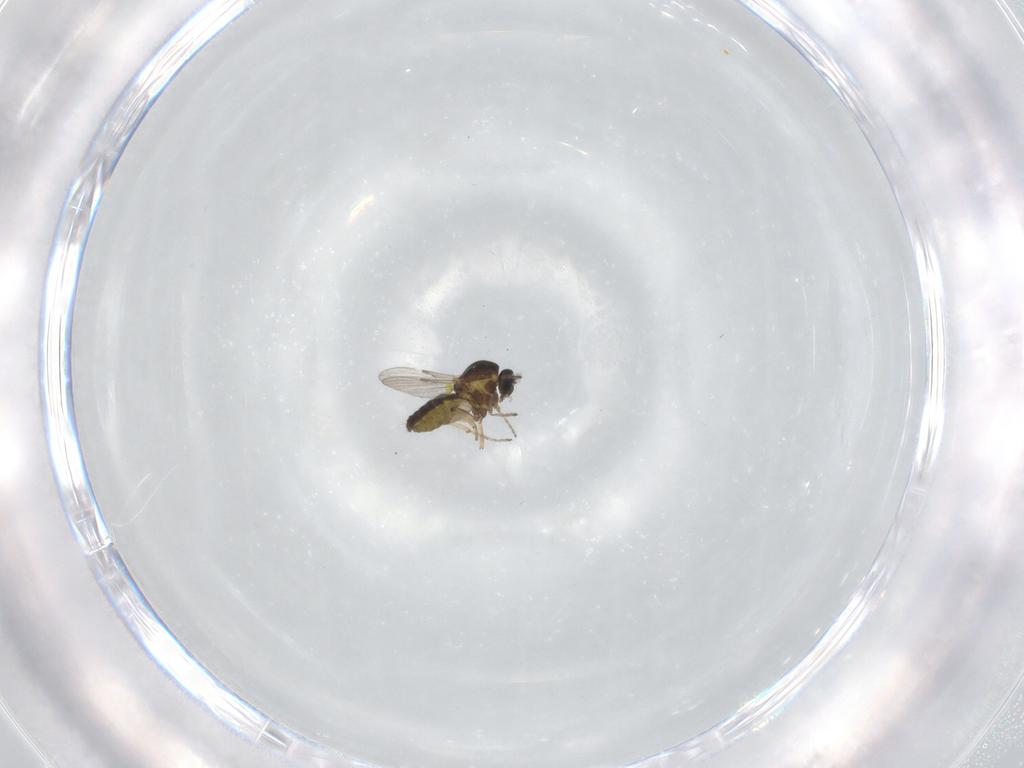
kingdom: Animalia
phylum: Arthropoda
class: Insecta
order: Diptera
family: Ceratopogonidae
